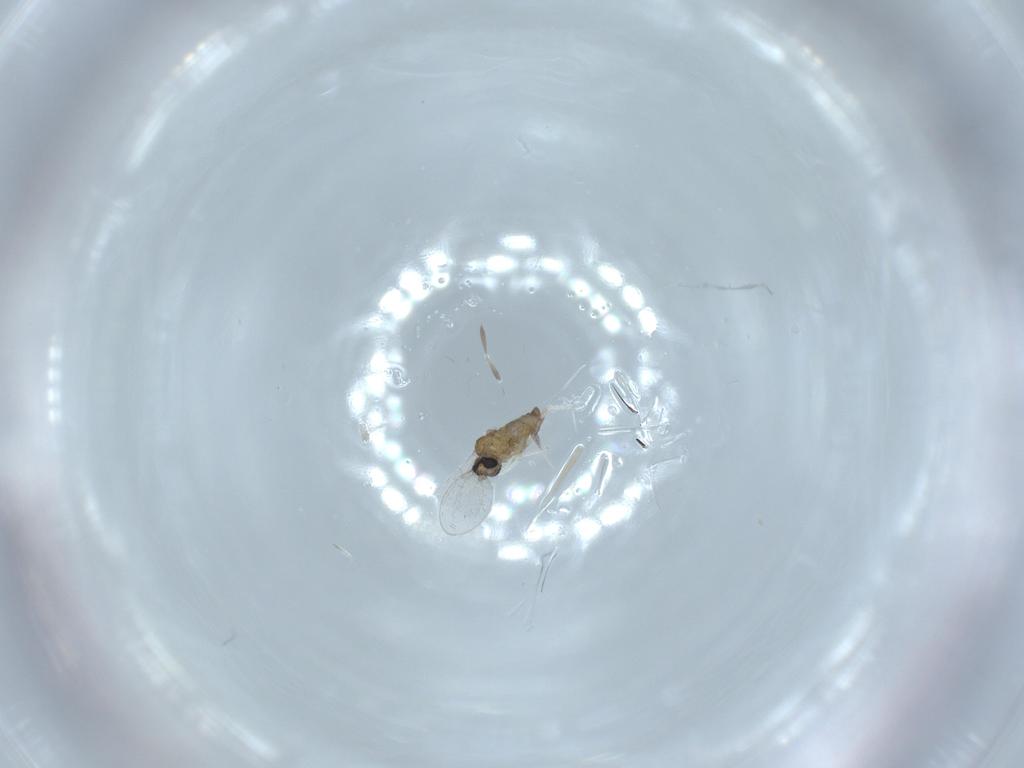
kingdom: Animalia
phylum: Arthropoda
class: Insecta
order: Diptera
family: Cecidomyiidae
